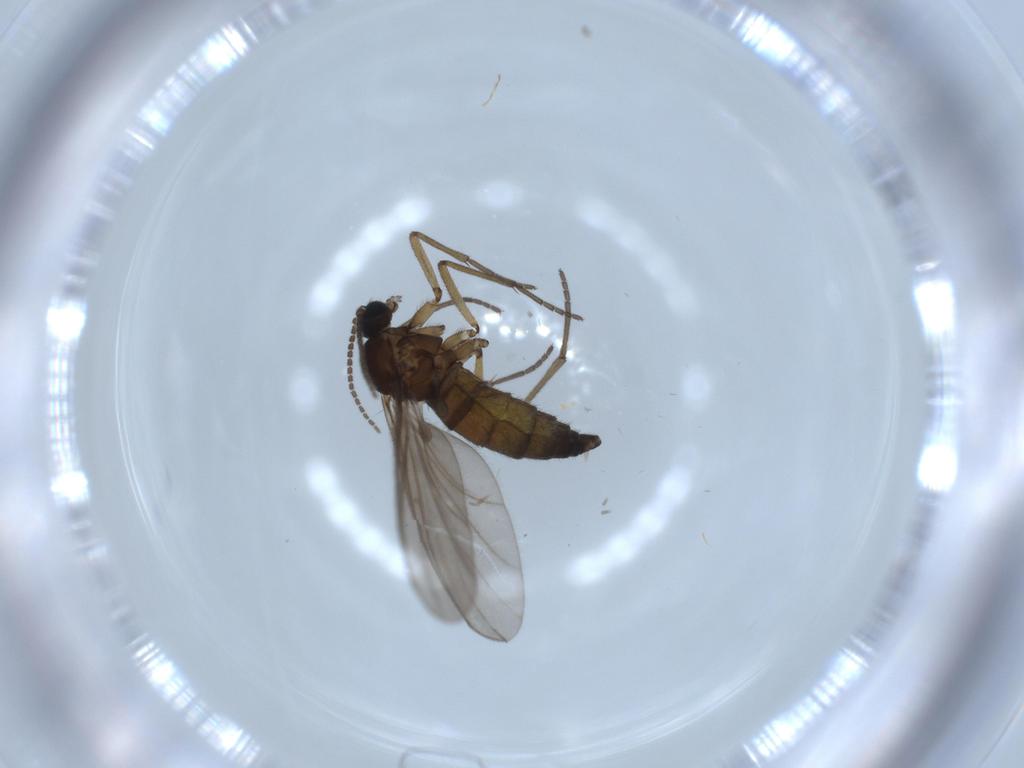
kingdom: Animalia
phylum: Arthropoda
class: Insecta
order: Diptera
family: Sciaridae
